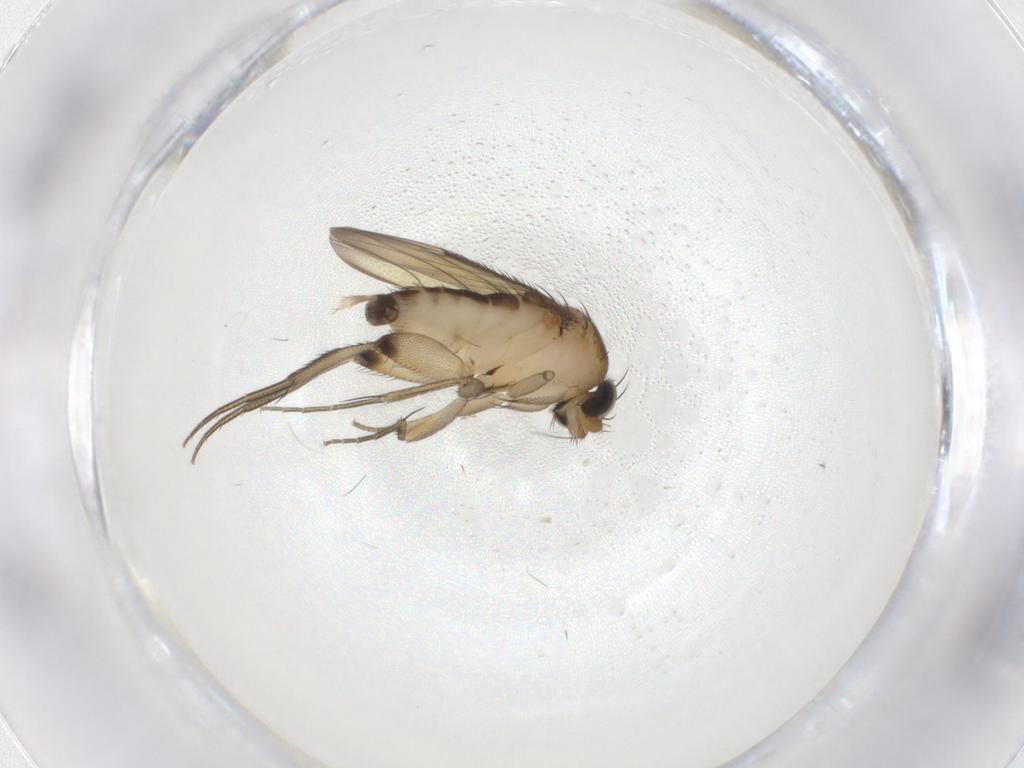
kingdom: Animalia
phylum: Arthropoda
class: Insecta
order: Diptera
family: Phoridae
